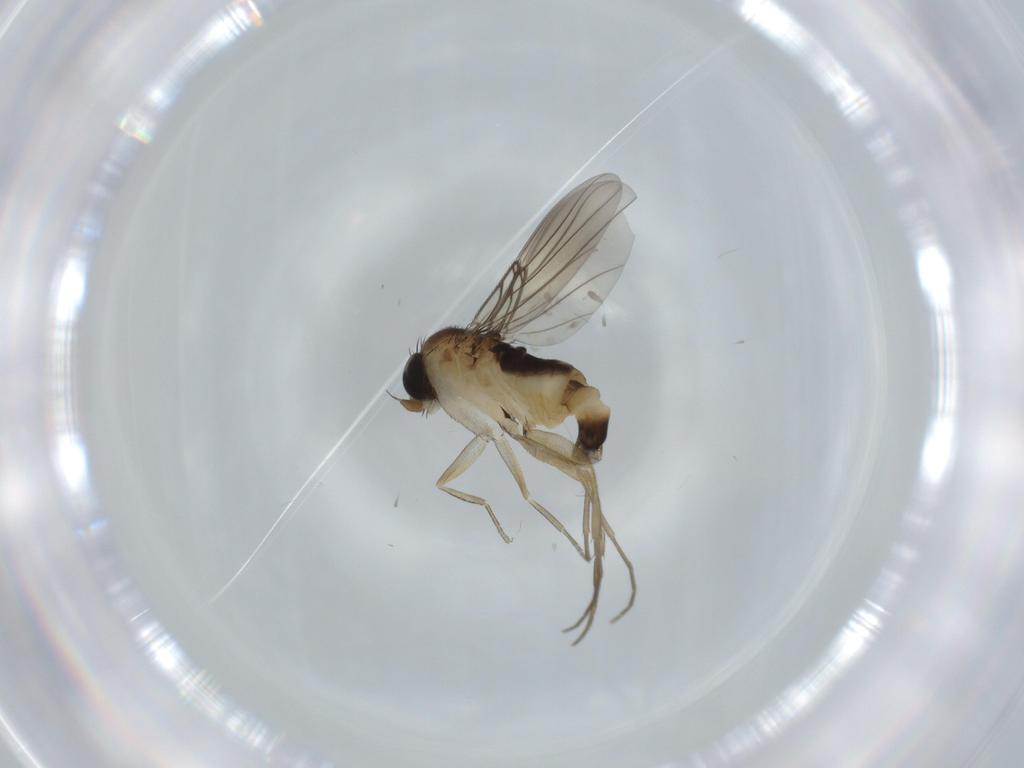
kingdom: Animalia
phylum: Arthropoda
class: Insecta
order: Diptera
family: Phoridae
